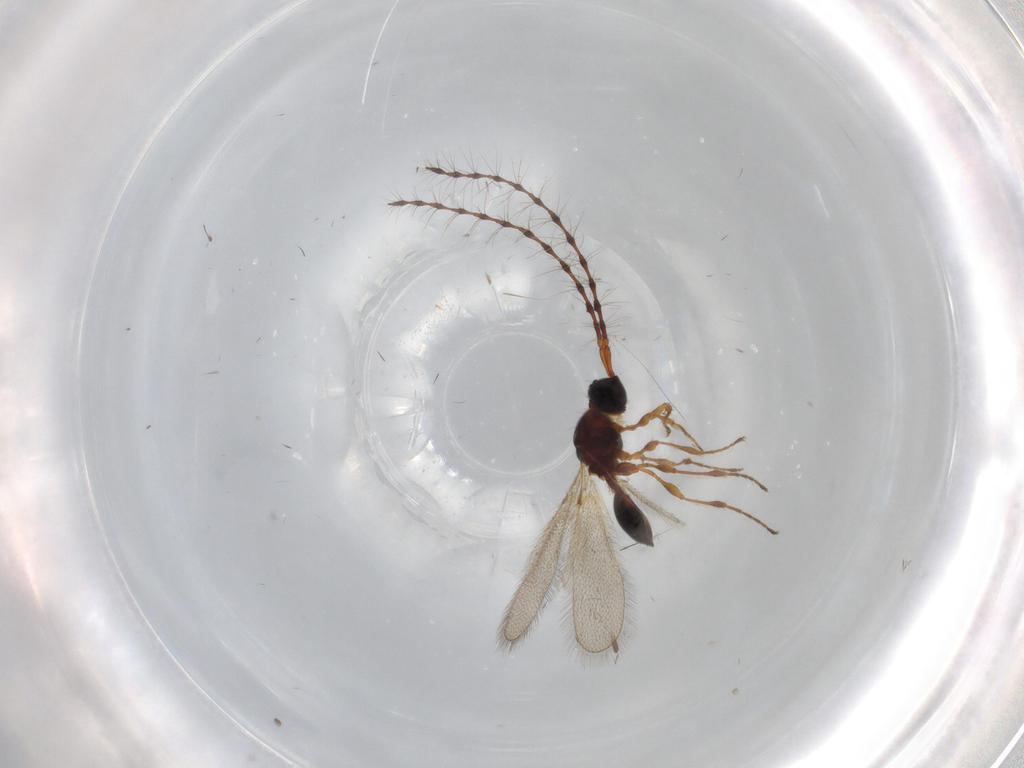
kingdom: Animalia
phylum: Arthropoda
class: Insecta
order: Hymenoptera
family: Diapriidae
